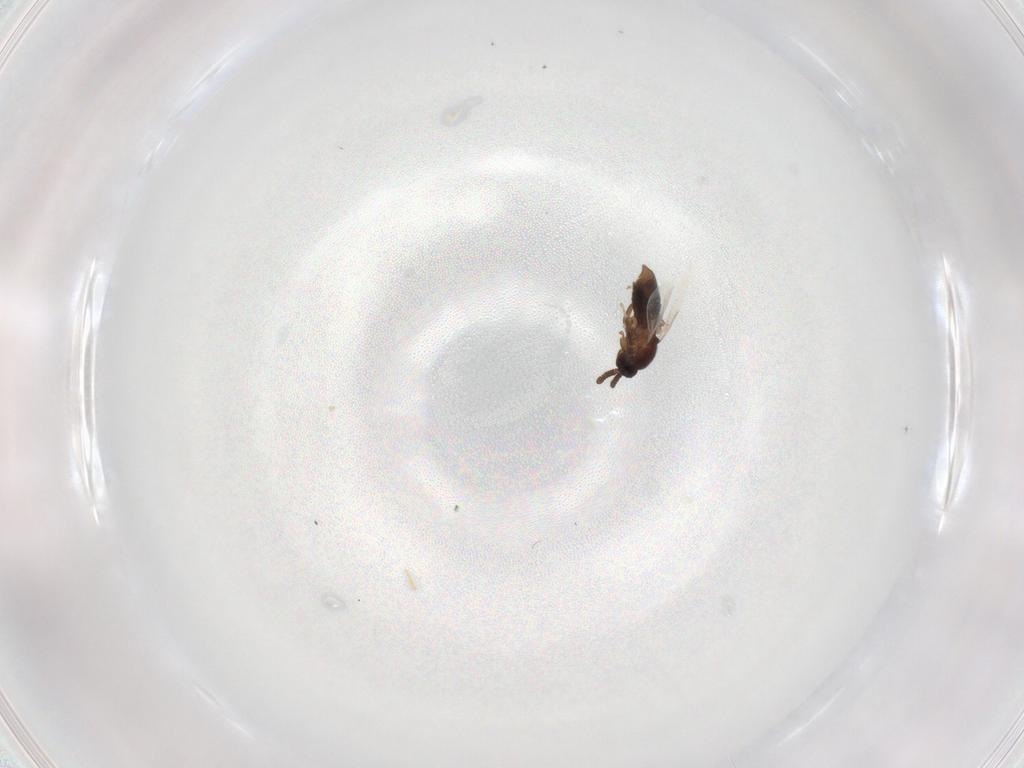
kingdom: Animalia
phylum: Arthropoda
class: Insecta
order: Diptera
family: Scatopsidae
